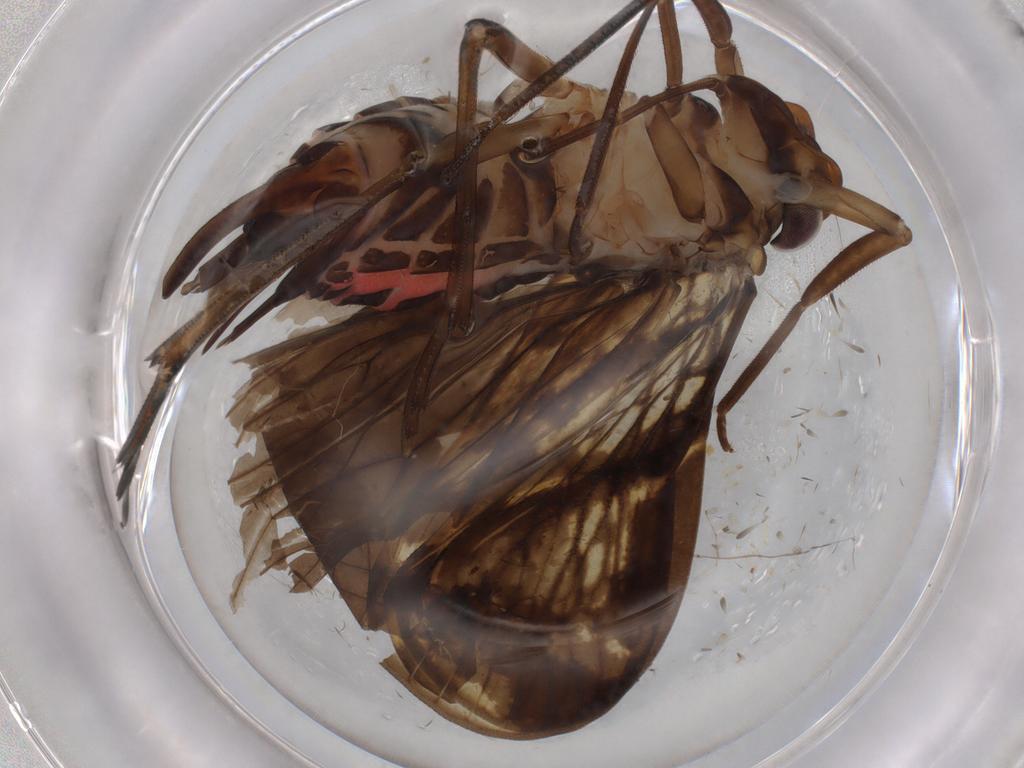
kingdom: Animalia
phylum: Arthropoda
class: Insecta
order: Hemiptera
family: Cixiidae
